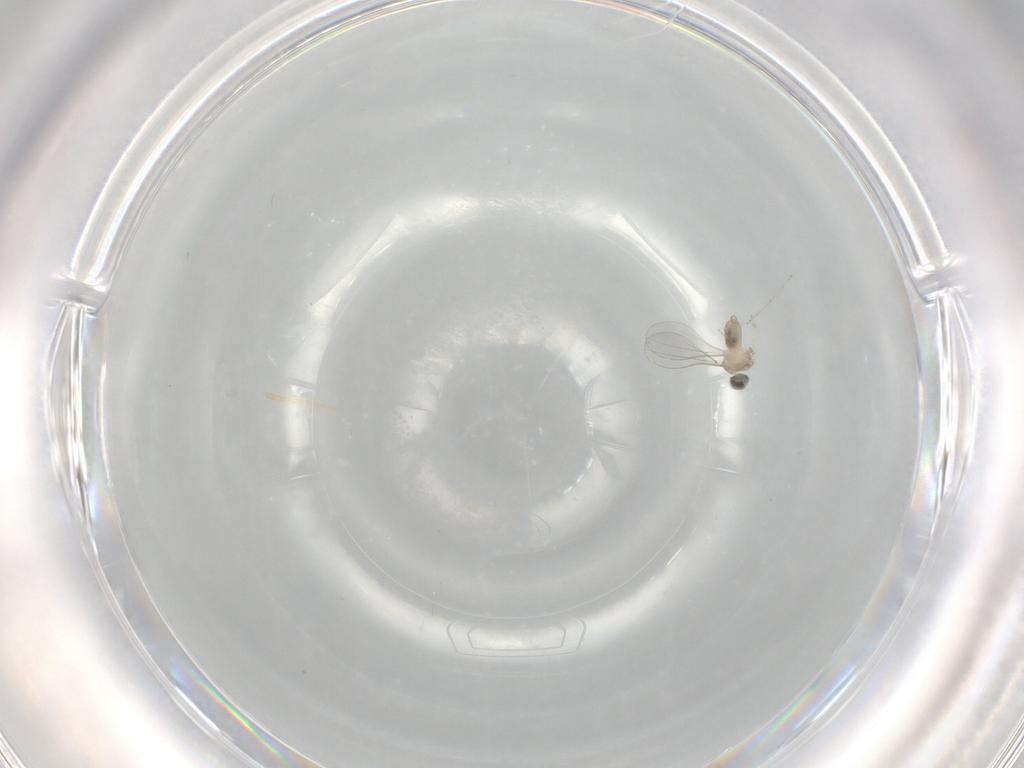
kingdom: Animalia
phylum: Arthropoda
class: Insecta
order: Diptera
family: Cecidomyiidae
